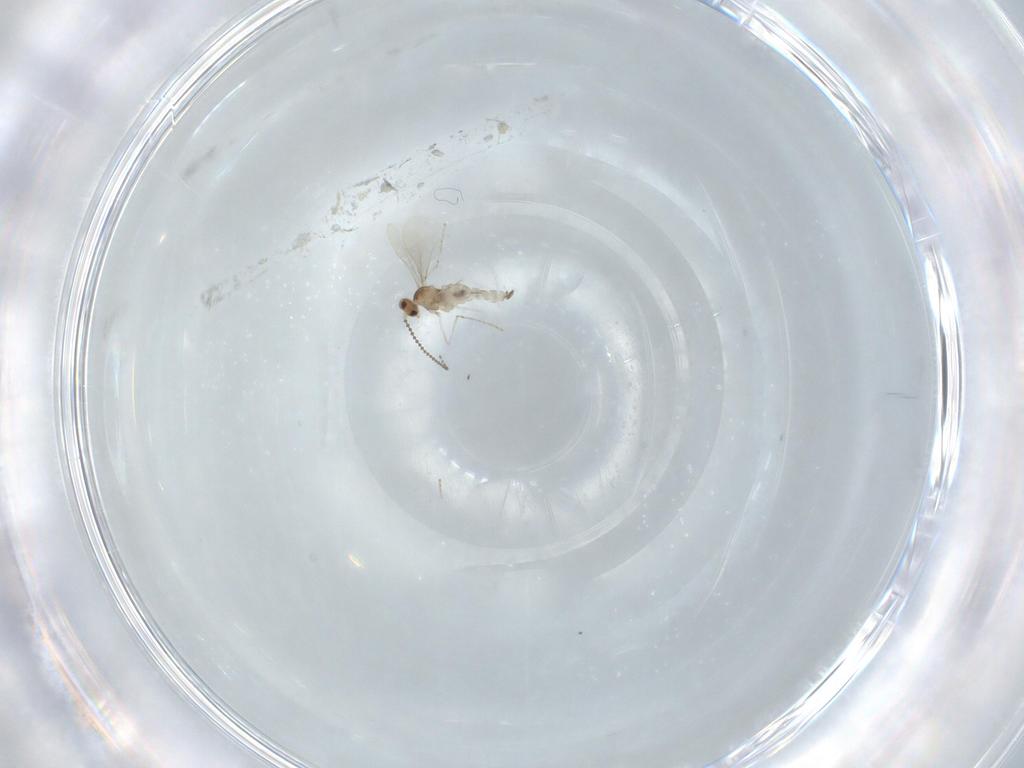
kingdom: Animalia
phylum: Arthropoda
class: Insecta
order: Diptera
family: Cecidomyiidae
